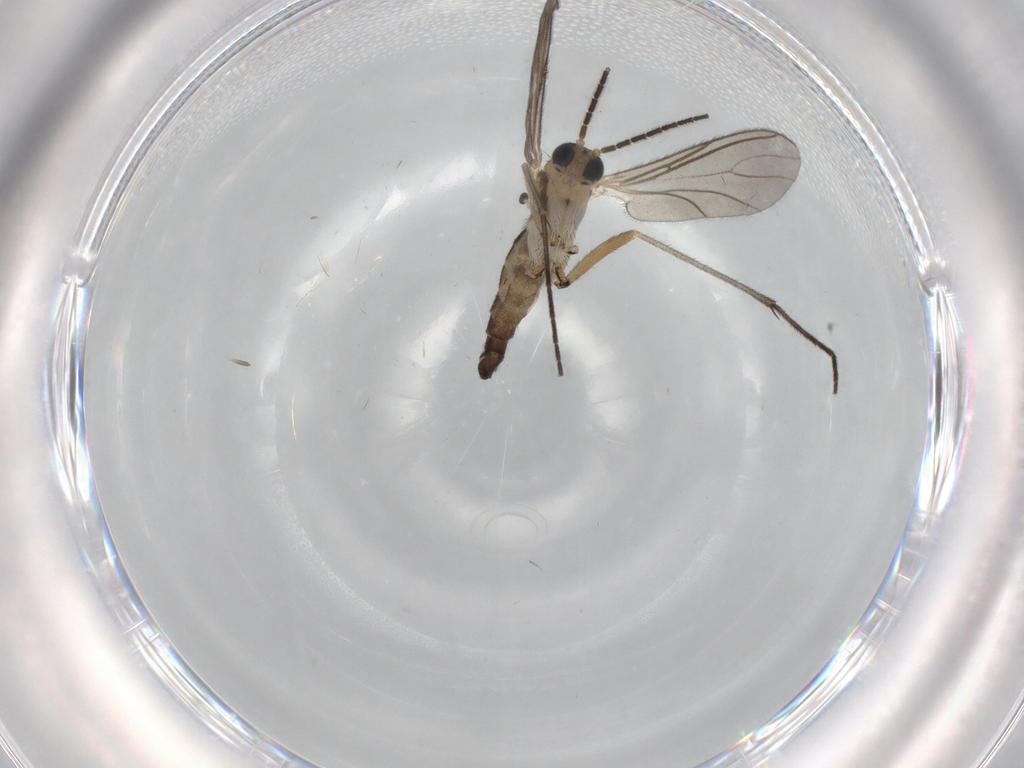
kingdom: Animalia
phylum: Arthropoda
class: Insecta
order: Diptera
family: Sciaridae
